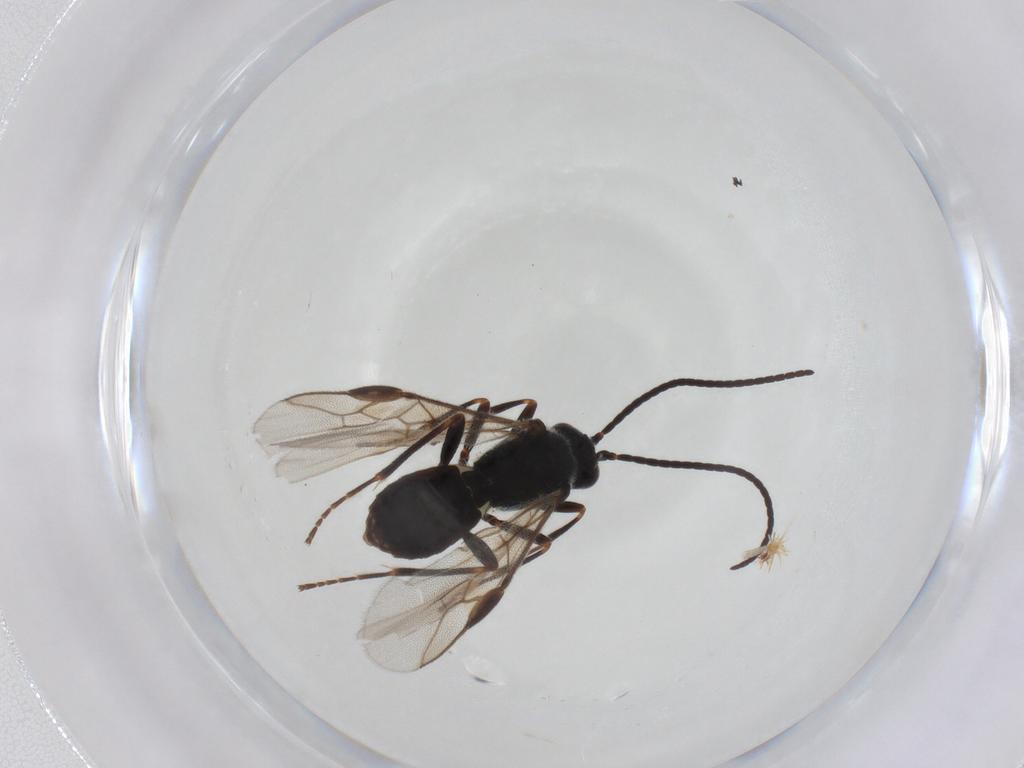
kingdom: Animalia
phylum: Arthropoda
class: Insecta
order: Hymenoptera
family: Braconidae
